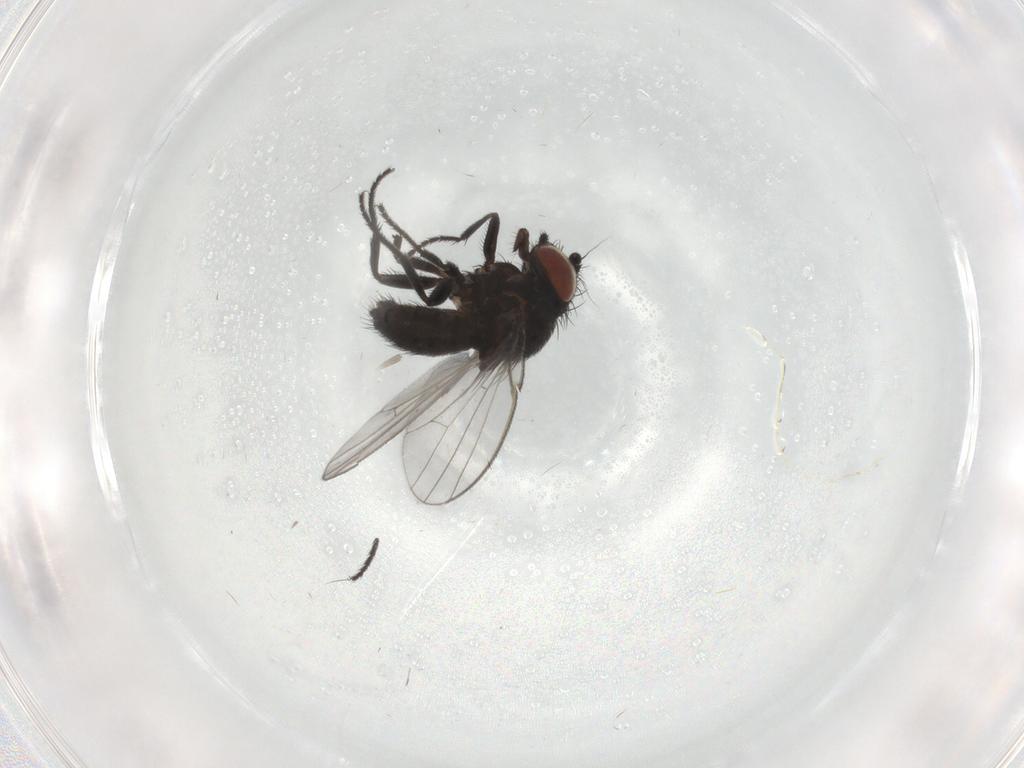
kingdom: Animalia
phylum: Arthropoda
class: Insecta
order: Diptera
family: Milichiidae
